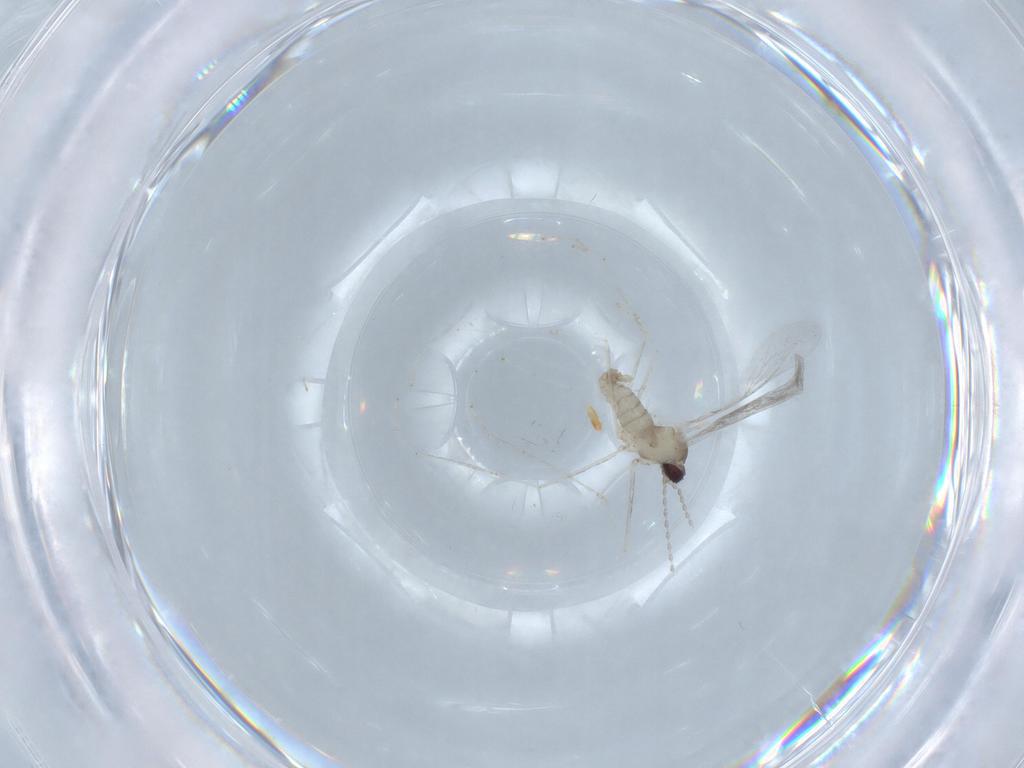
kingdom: Animalia
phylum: Arthropoda
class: Insecta
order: Diptera
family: Cecidomyiidae
